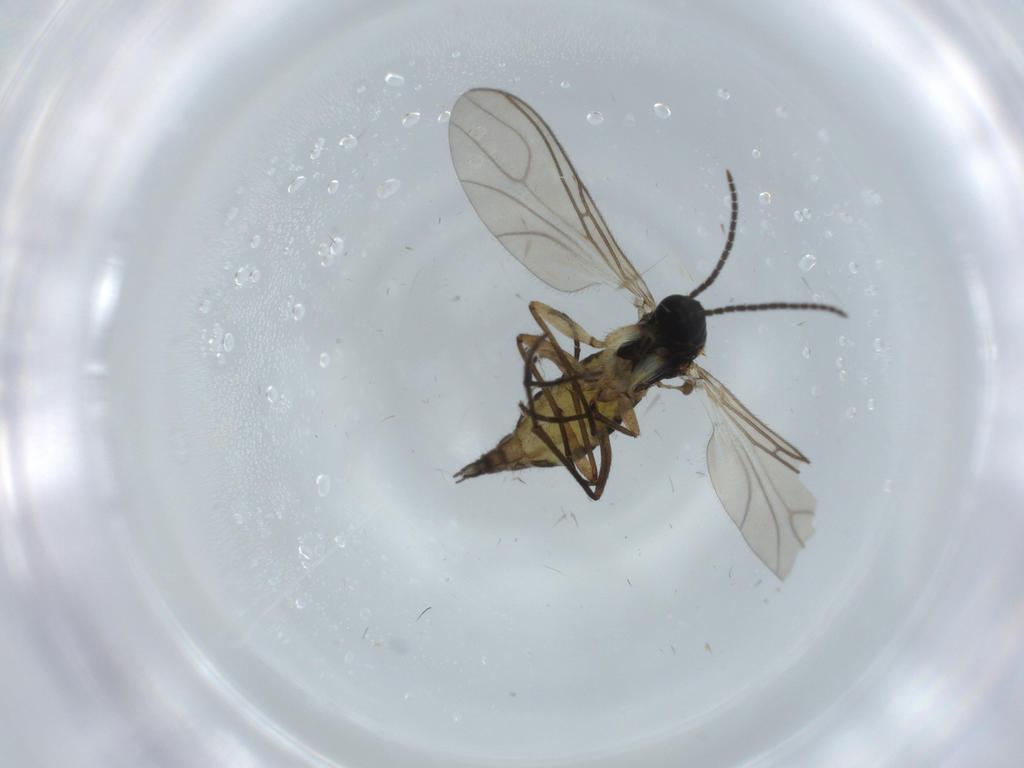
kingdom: Animalia
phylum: Arthropoda
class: Insecta
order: Diptera
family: Sciaridae
